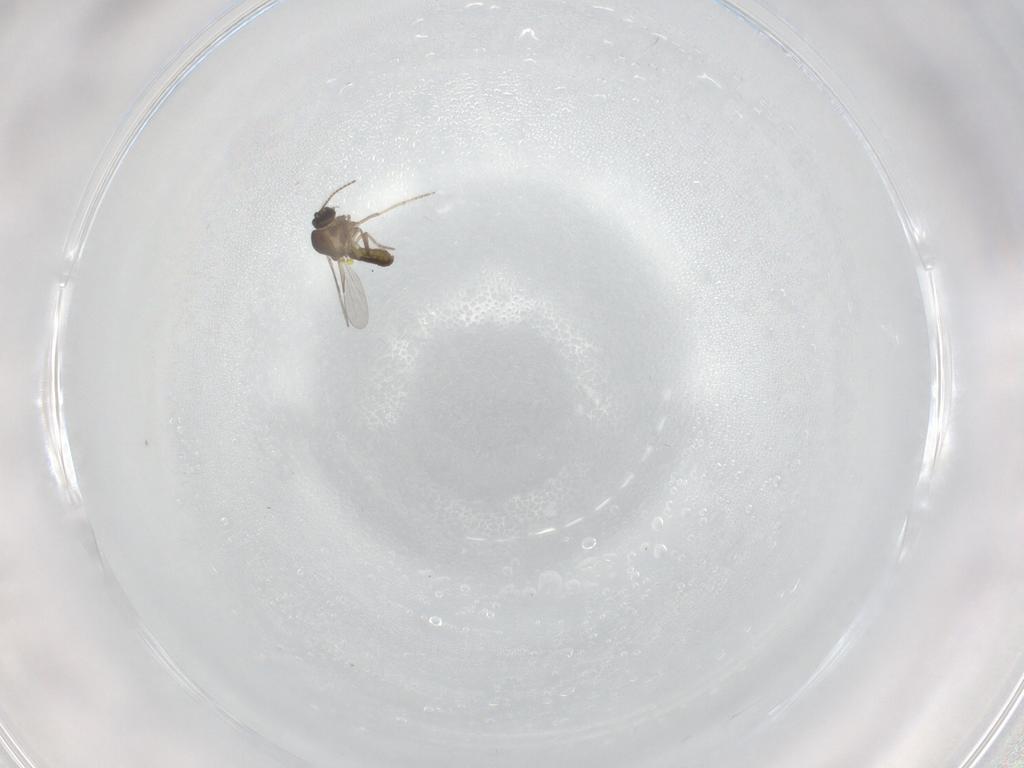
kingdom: Animalia
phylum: Arthropoda
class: Insecta
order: Diptera
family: Ceratopogonidae
